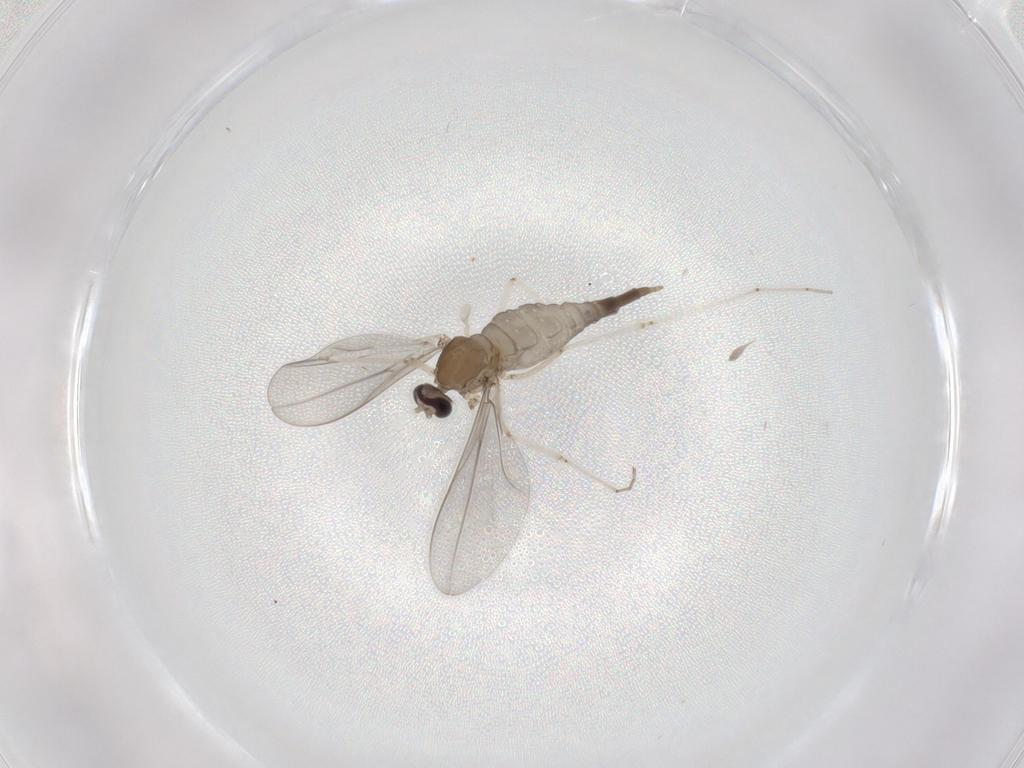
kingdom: Animalia
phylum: Arthropoda
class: Insecta
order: Diptera
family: Cecidomyiidae
